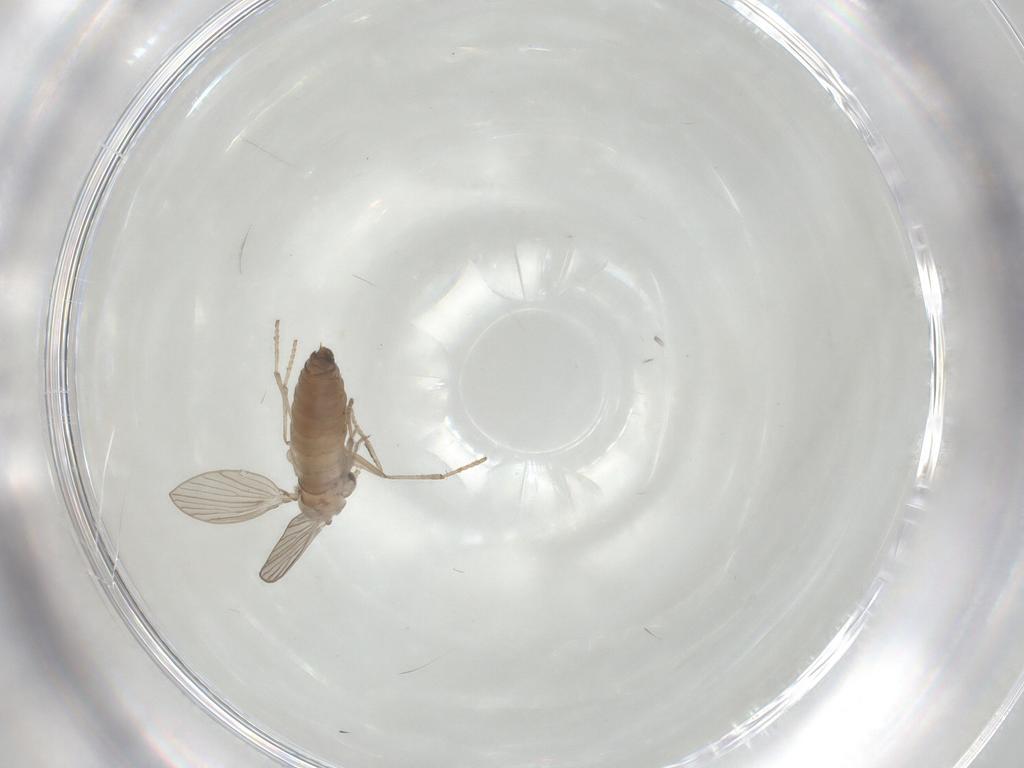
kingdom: Animalia
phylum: Arthropoda
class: Insecta
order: Diptera
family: Psychodidae
